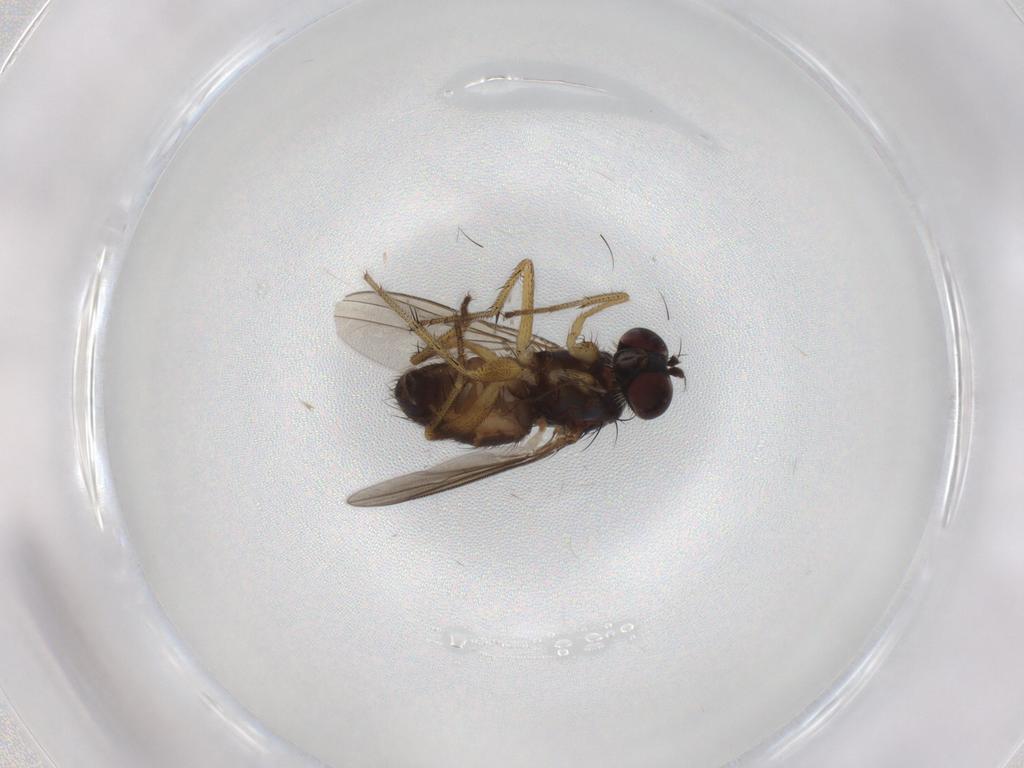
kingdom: Animalia
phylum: Arthropoda
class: Insecta
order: Diptera
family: Dolichopodidae
